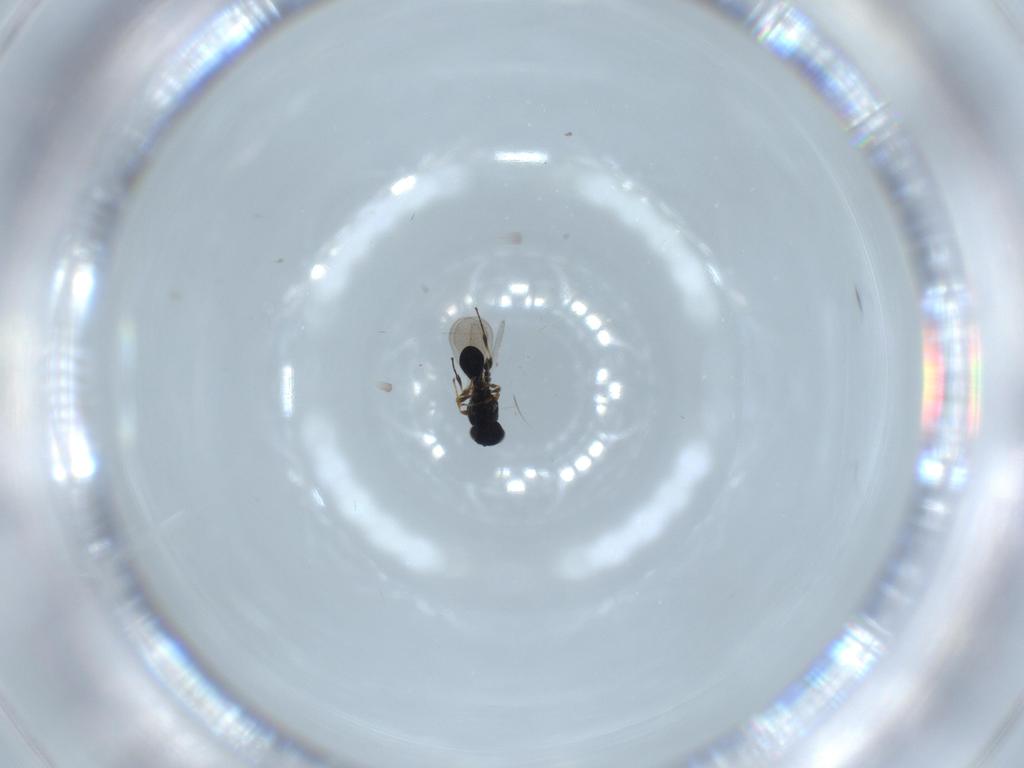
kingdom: Animalia
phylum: Arthropoda
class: Insecta
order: Hymenoptera
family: Platygastridae
